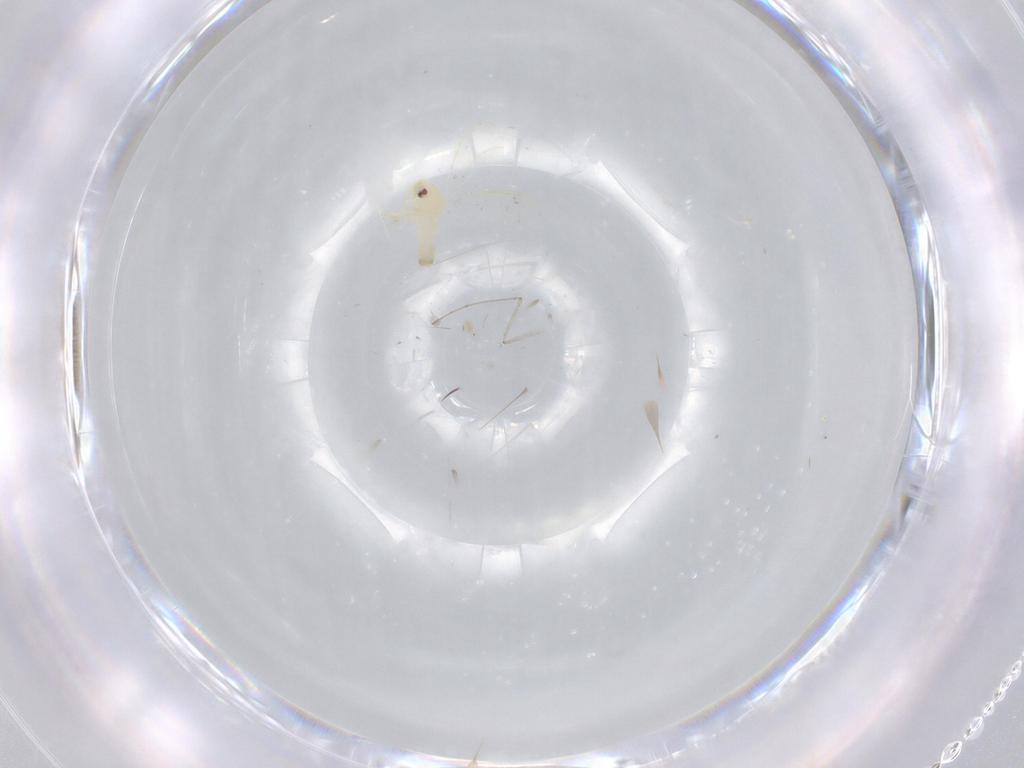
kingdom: Animalia
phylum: Arthropoda
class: Insecta
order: Hemiptera
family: Aleyrodidae
